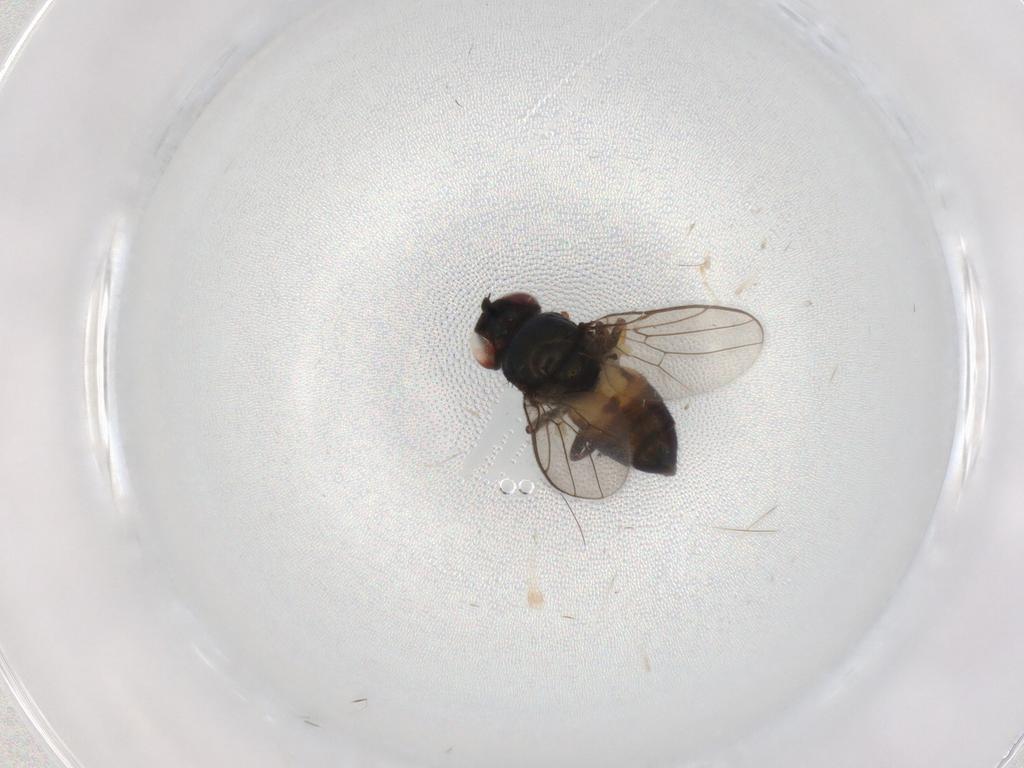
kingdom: Animalia
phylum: Arthropoda
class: Insecta
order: Diptera
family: Chloropidae
